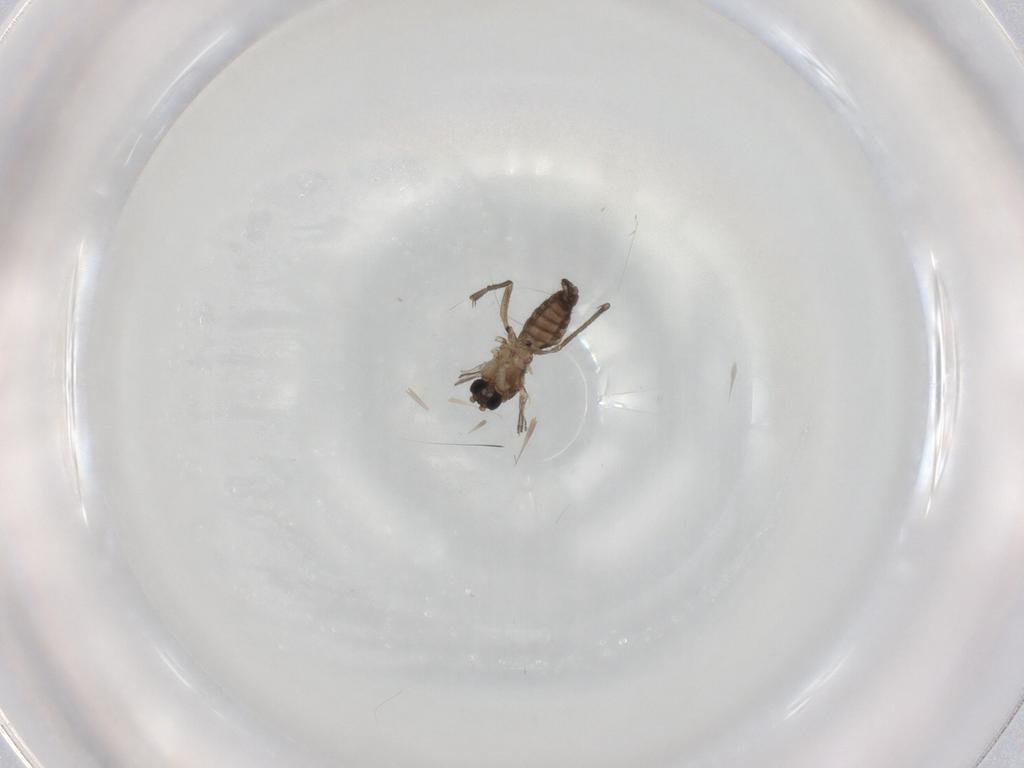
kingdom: Animalia
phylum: Arthropoda
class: Insecta
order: Diptera
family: Sciaridae
